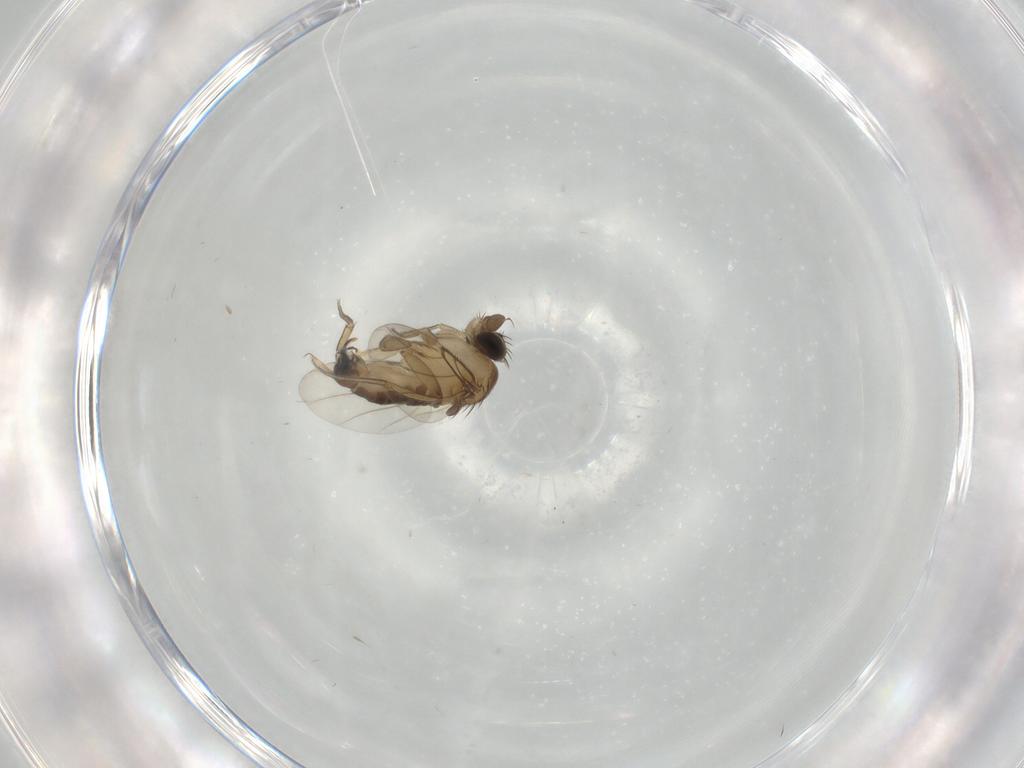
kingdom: Animalia
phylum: Arthropoda
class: Insecta
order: Diptera
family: Phoridae
